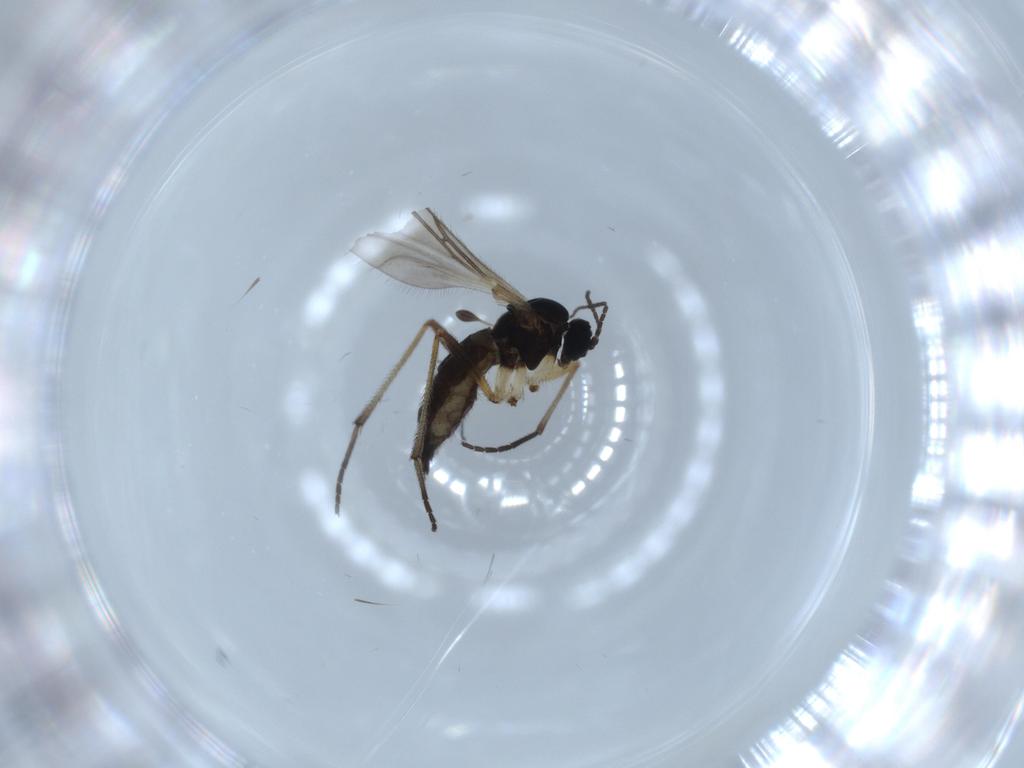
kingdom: Animalia
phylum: Arthropoda
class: Insecta
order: Diptera
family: Sciaridae
